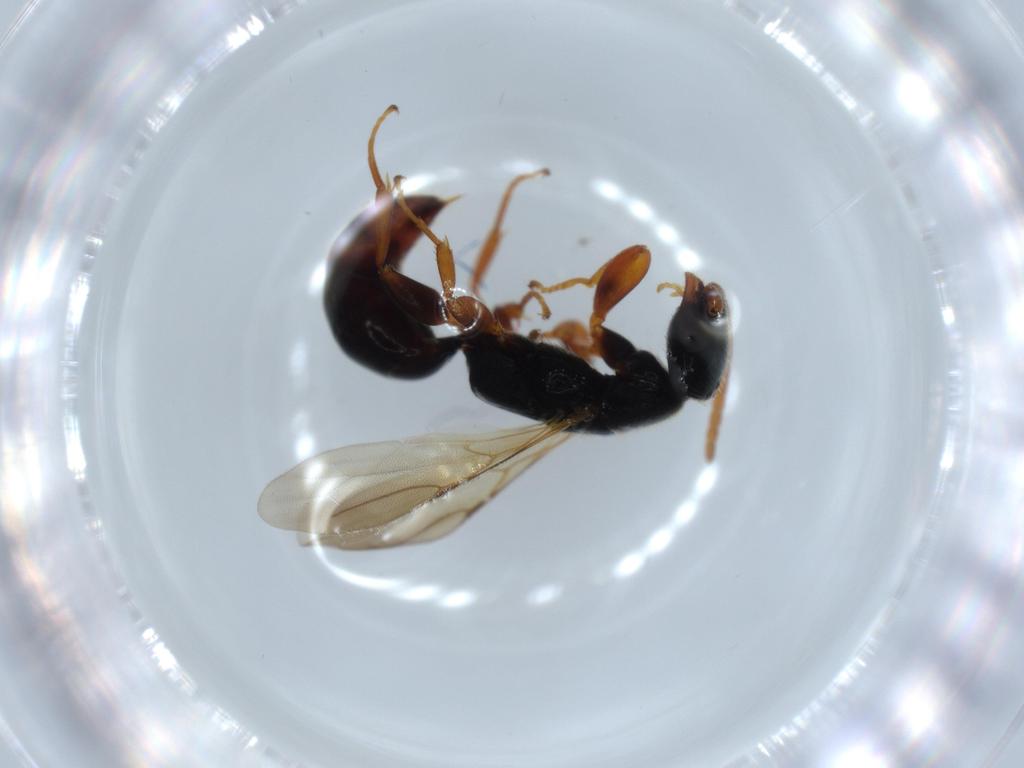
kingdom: Animalia
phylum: Arthropoda
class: Insecta
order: Hymenoptera
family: Bethylidae
